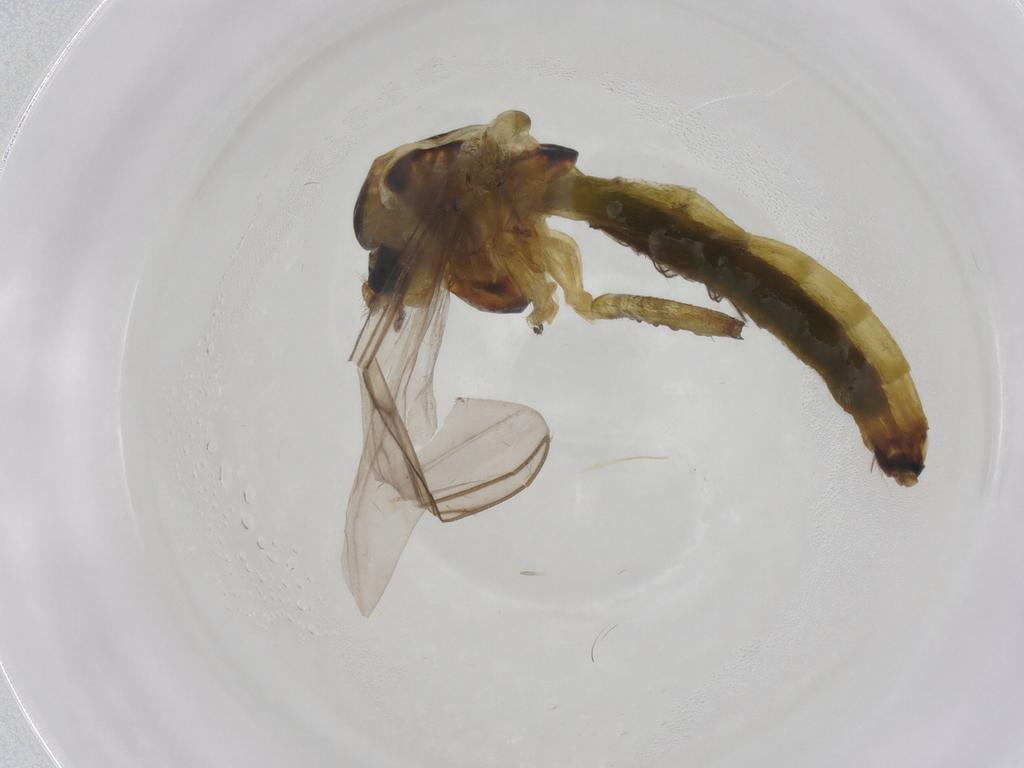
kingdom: Animalia
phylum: Arthropoda
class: Insecta
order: Diptera
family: Chironomidae
